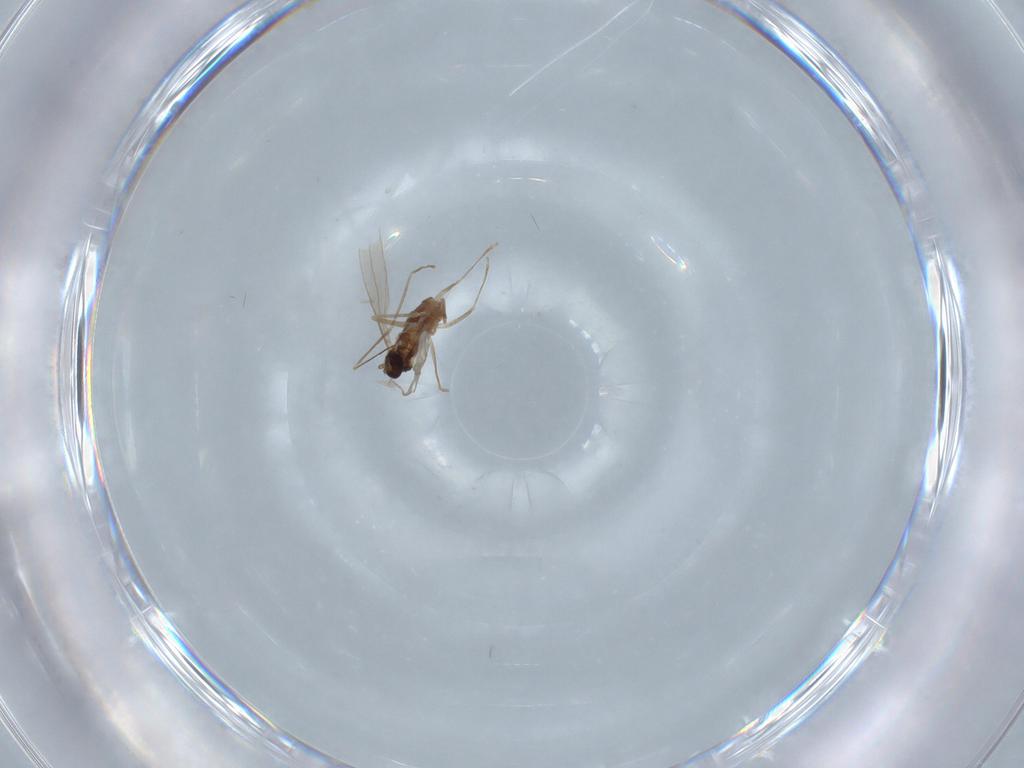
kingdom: Animalia
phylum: Arthropoda
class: Insecta
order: Diptera
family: Cecidomyiidae
